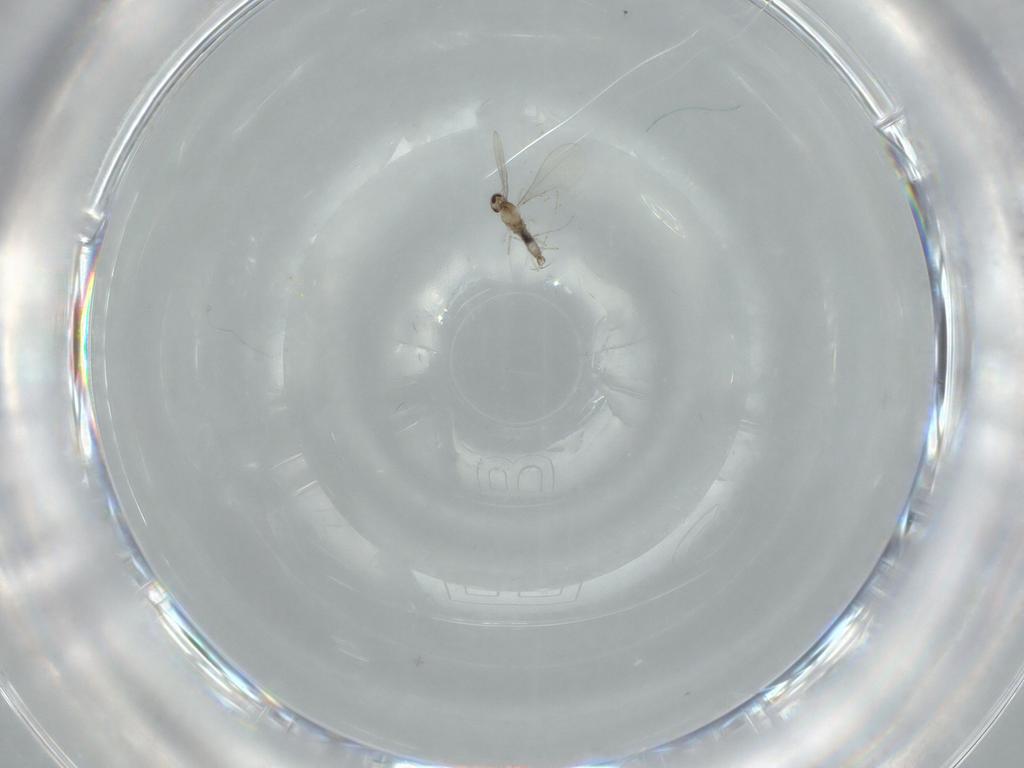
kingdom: Animalia
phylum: Arthropoda
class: Insecta
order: Diptera
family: Cecidomyiidae
